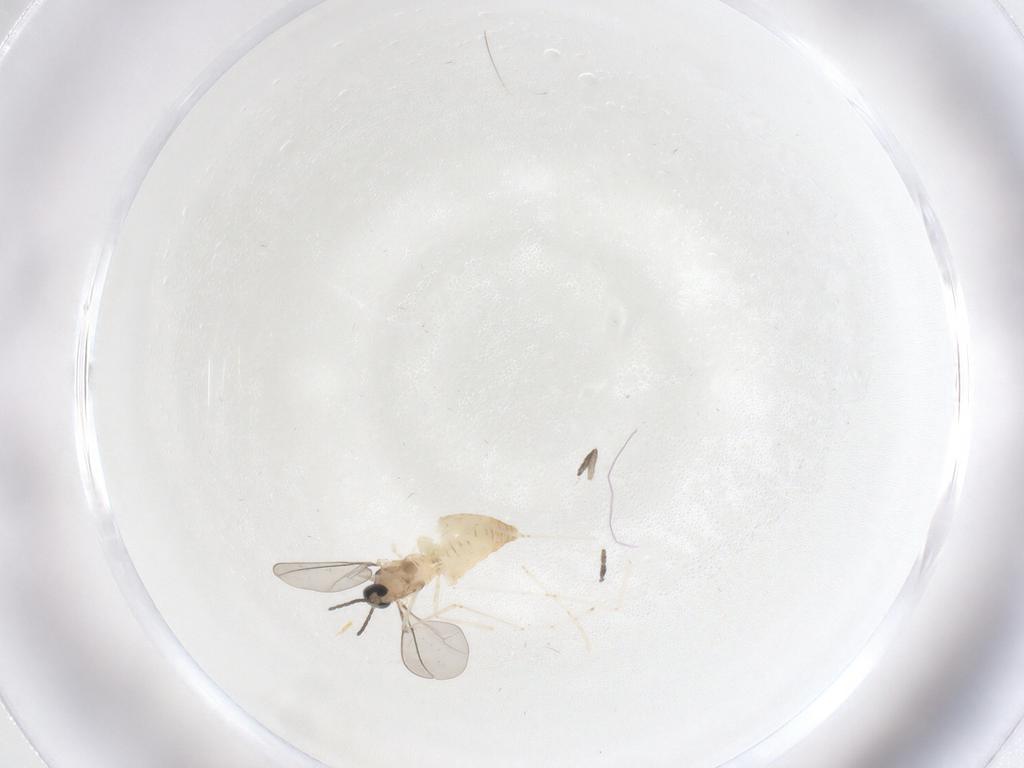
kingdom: Animalia
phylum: Arthropoda
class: Insecta
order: Diptera
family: Cecidomyiidae
